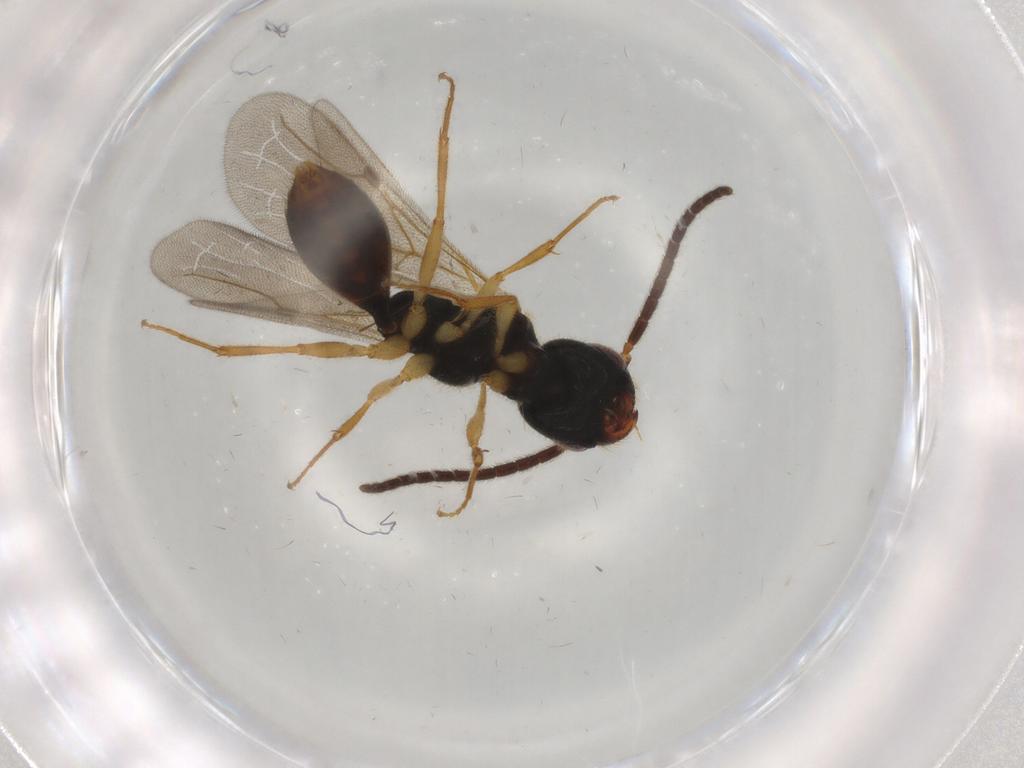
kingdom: Animalia
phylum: Arthropoda
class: Insecta
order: Hymenoptera
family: Bethylidae
